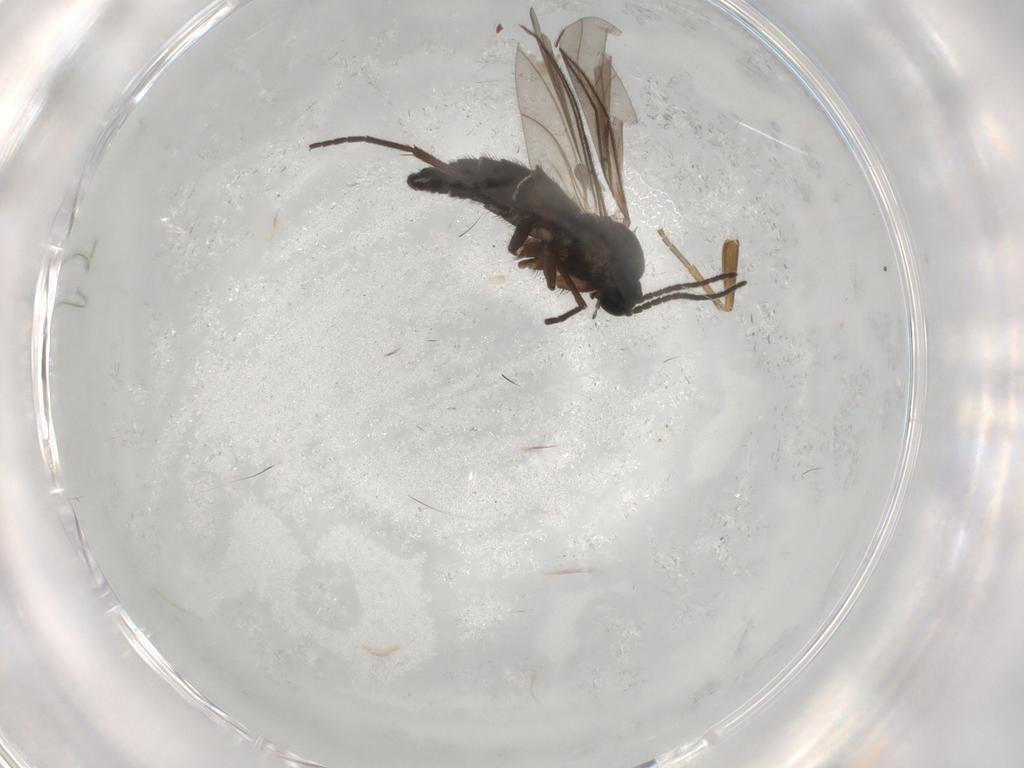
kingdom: Animalia
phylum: Arthropoda
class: Insecta
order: Diptera
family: Sciaridae
